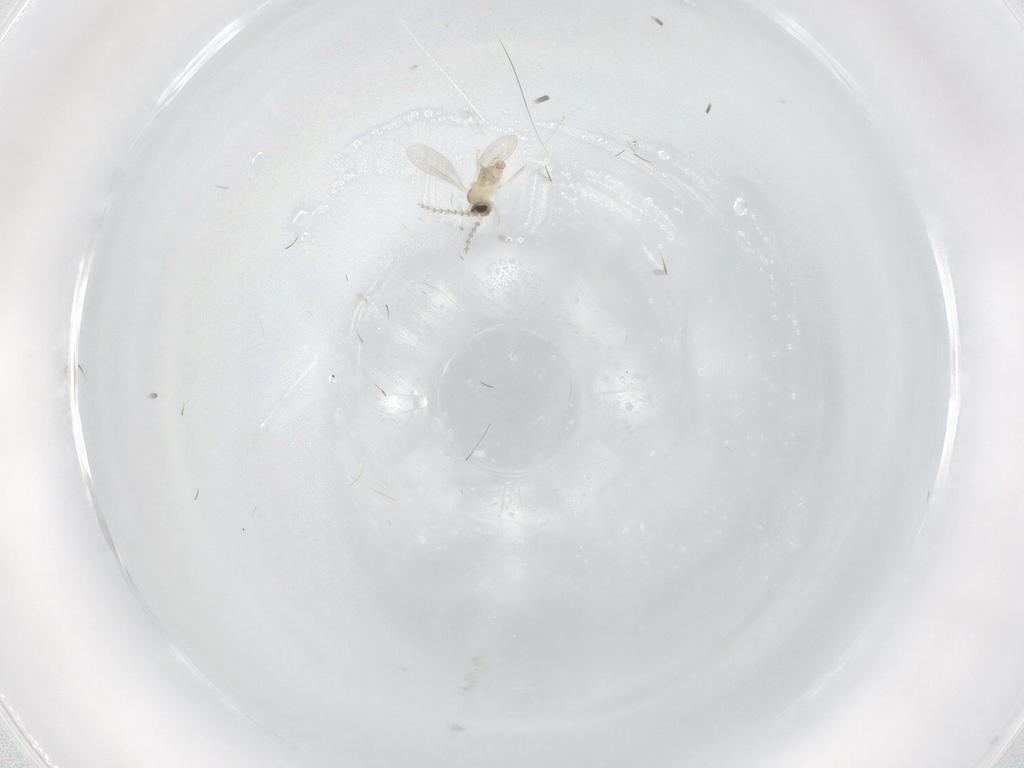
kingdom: Animalia
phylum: Arthropoda
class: Insecta
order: Diptera
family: Cecidomyiidae
